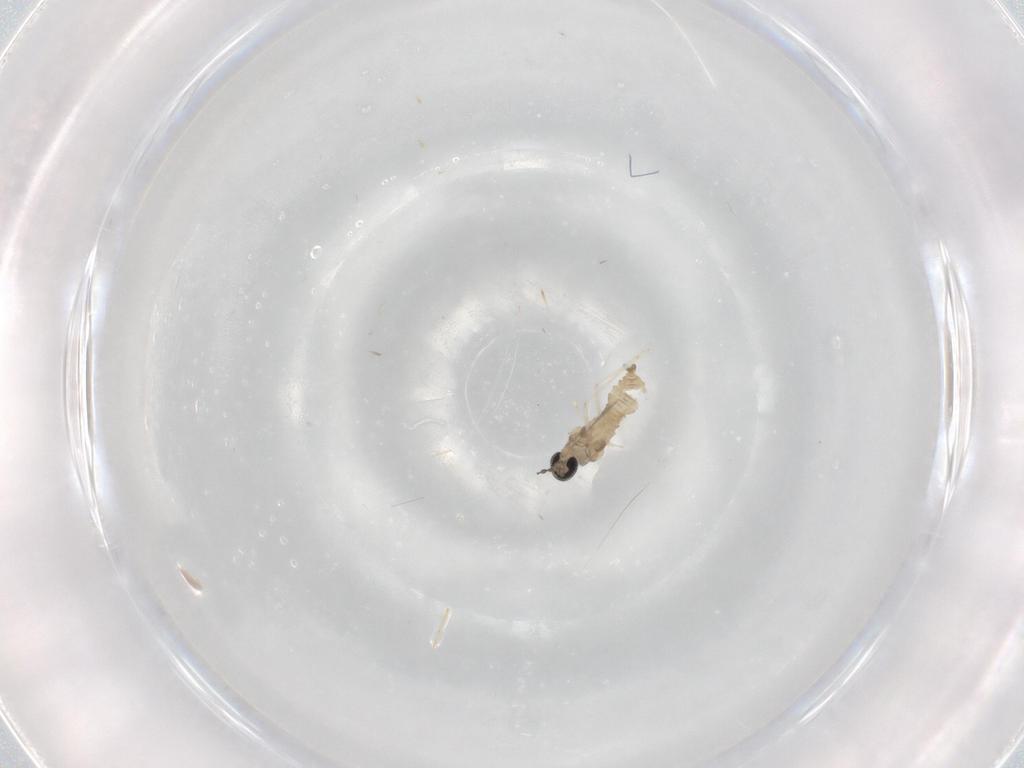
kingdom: Animalia
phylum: Arthropoda
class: Insecta
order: Diptera
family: Cecidomyiidae
